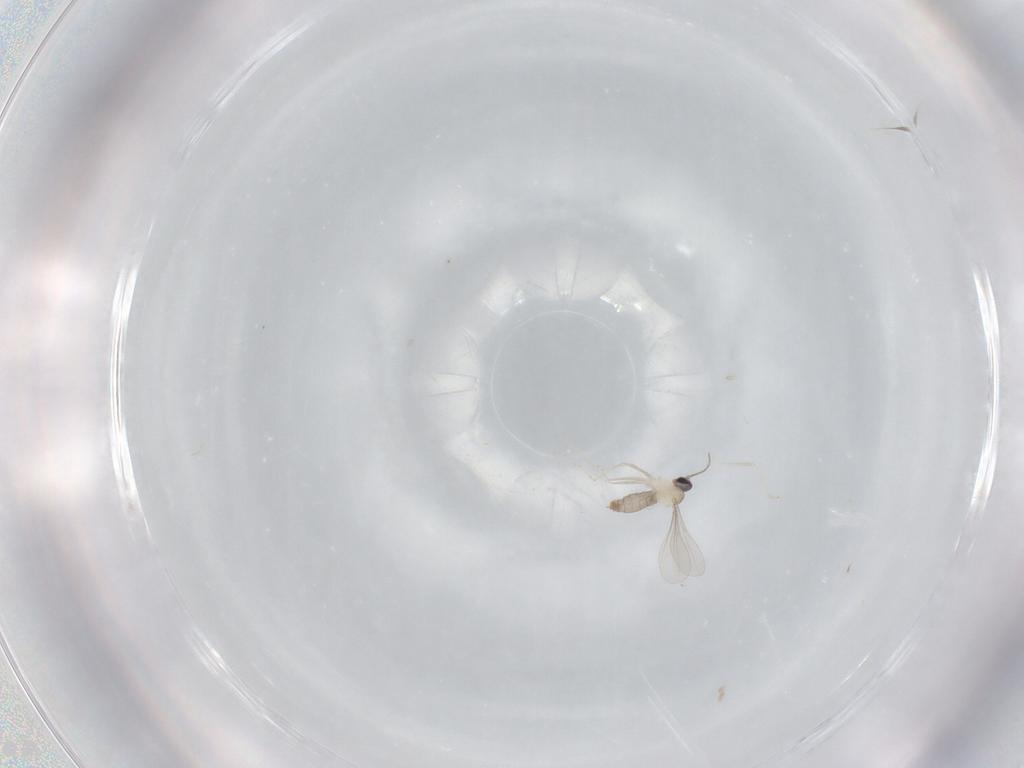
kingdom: Animalia
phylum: Arthropoda
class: Insecta
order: Diptera
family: Cecidomyiidae
